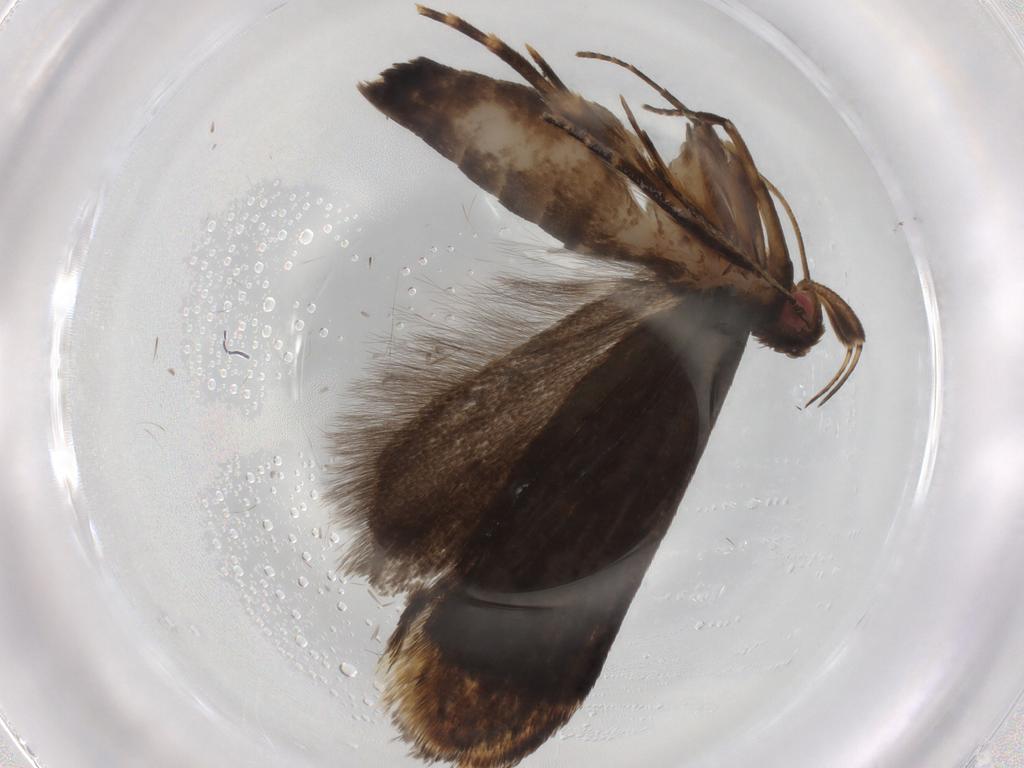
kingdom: Animalia
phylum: Arthropoda
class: Insecta
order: Lepidoptera
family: Gelechiidae
